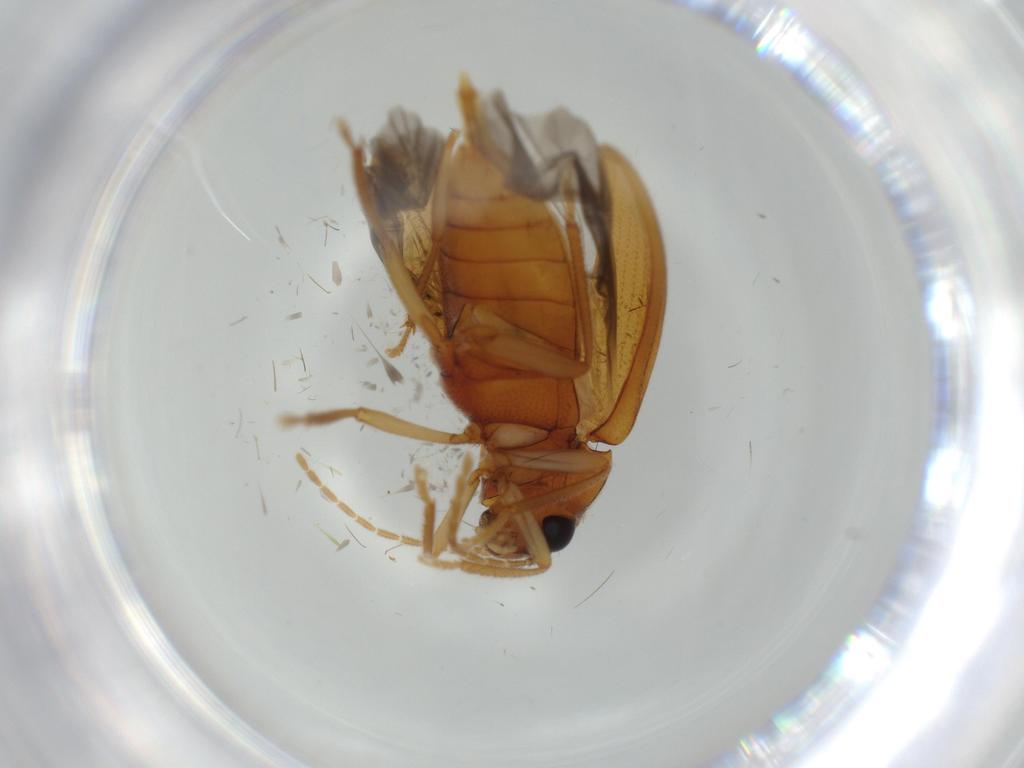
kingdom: Animalia
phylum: Arthropoda
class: Insecta
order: Coleoptera
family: Ptilodactylidae
